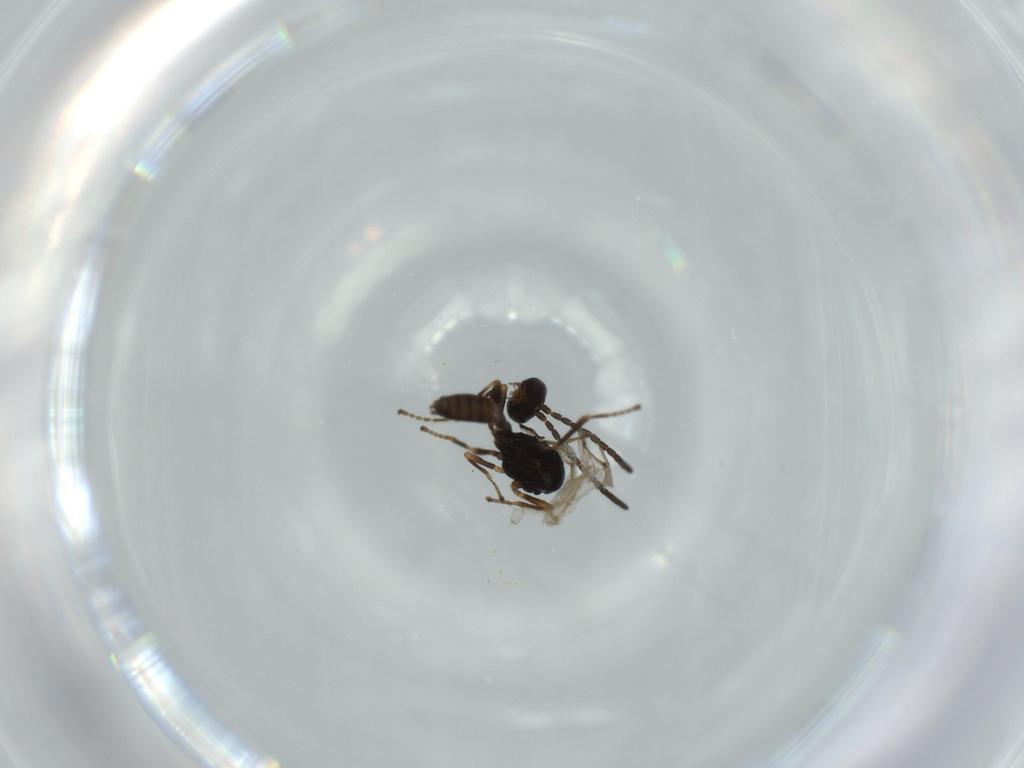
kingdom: Animalia
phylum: Arthropoda
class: Insecta
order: Hymenoptera
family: Braconidae
